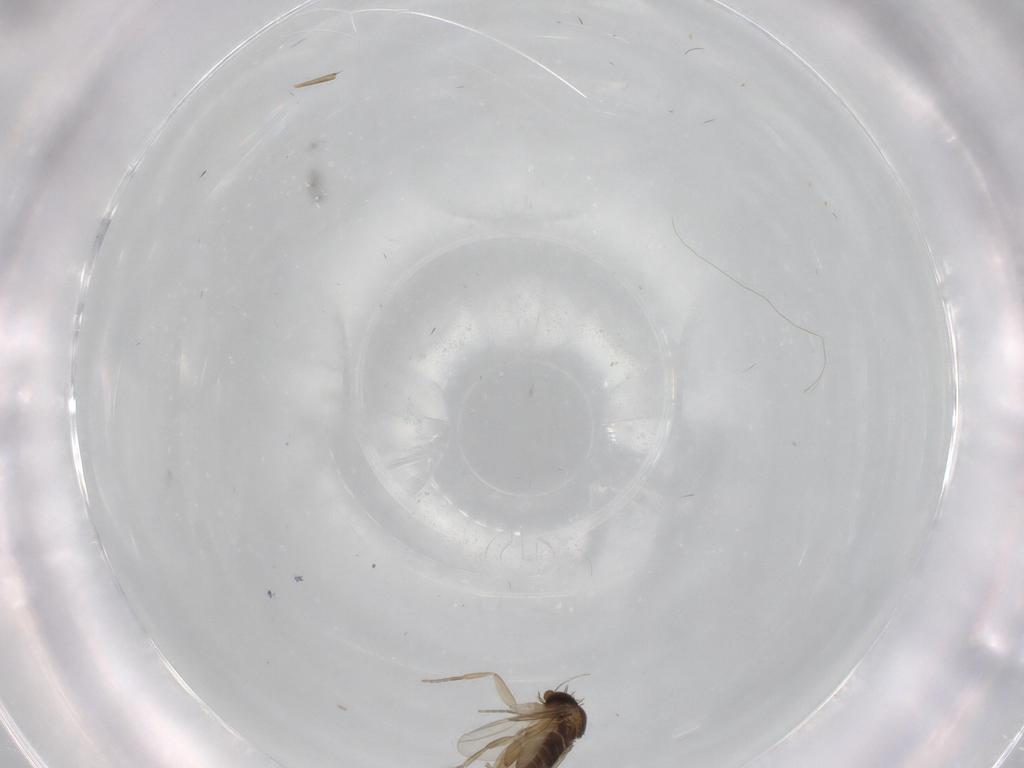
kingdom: Animalia
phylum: Arthropoda
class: Insecta
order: Diptera
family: Phoridae
